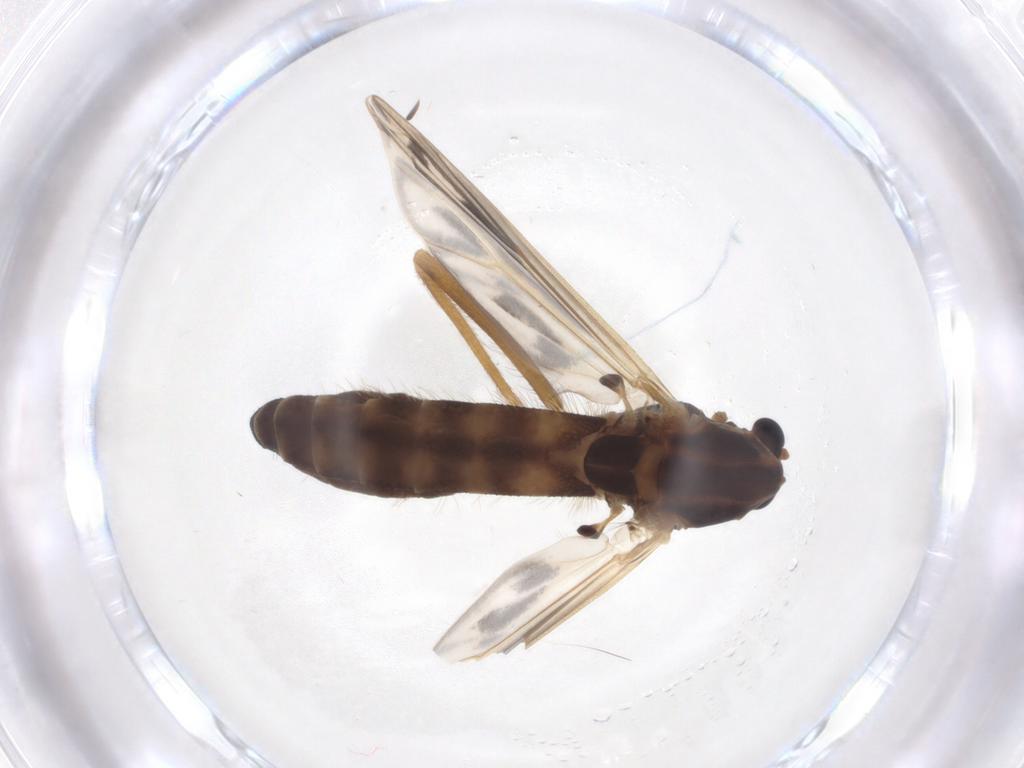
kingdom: Animalia
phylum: Arthropoda
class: Insecta
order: Diptera
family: Chironomidae
